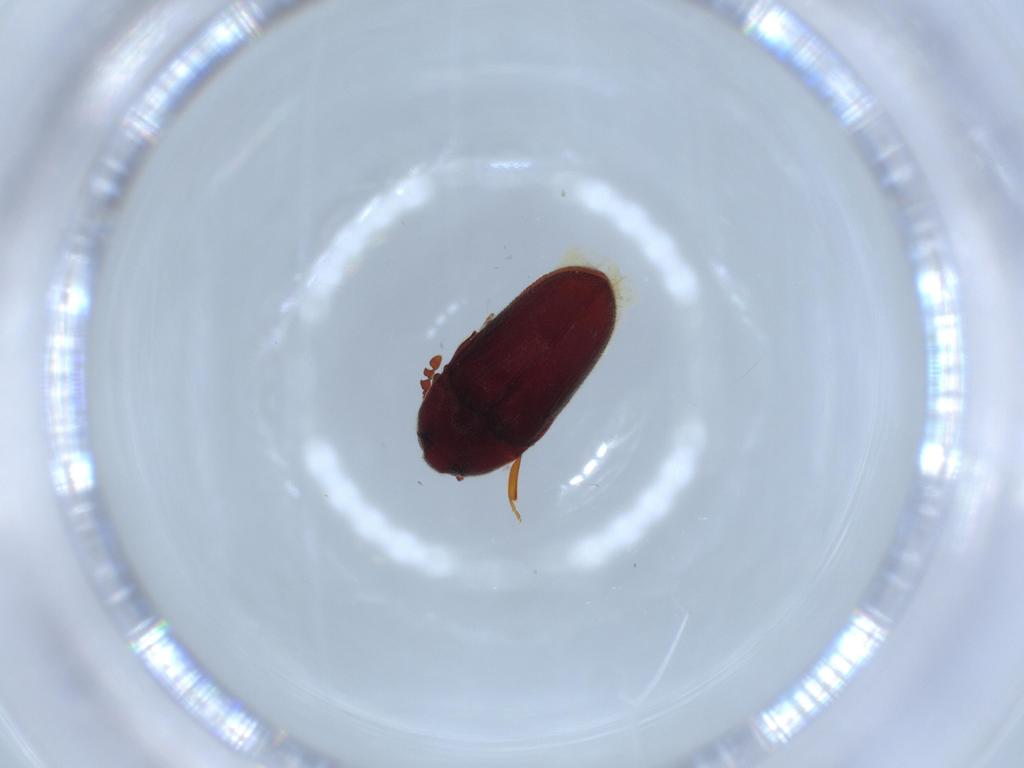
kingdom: Animalia
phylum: Arthropoda
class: Insecta
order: Coleoptera
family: Throscidae
